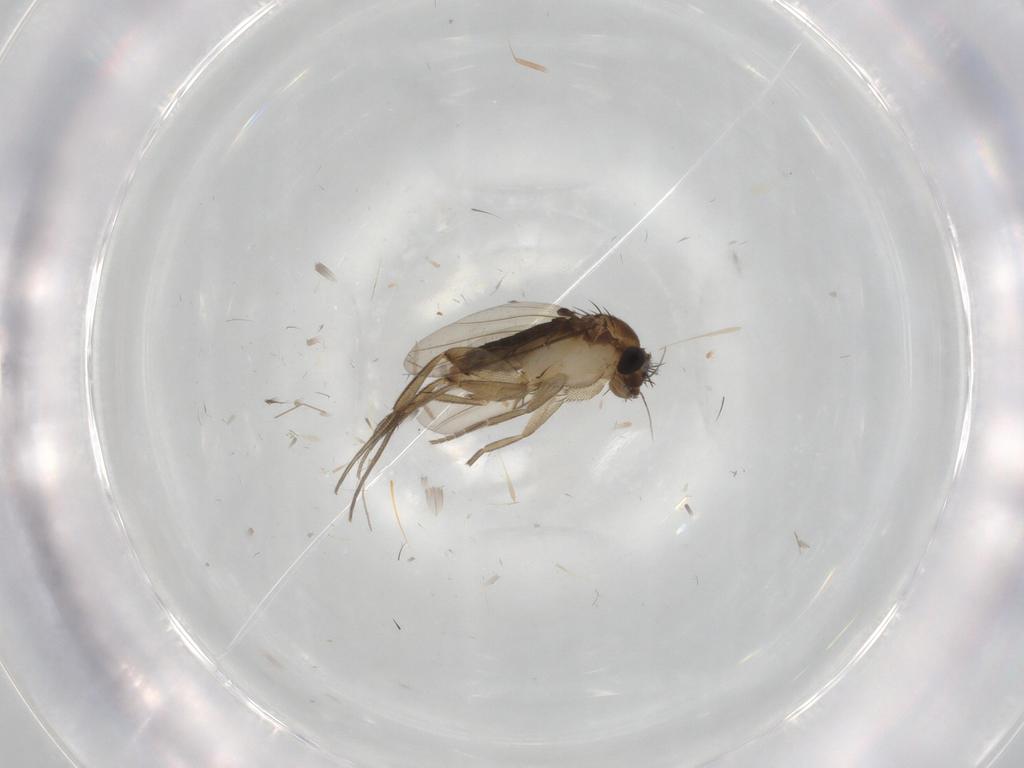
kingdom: Animalia
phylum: Arthropoda
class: Insecta
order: Diptera
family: Phoridae
